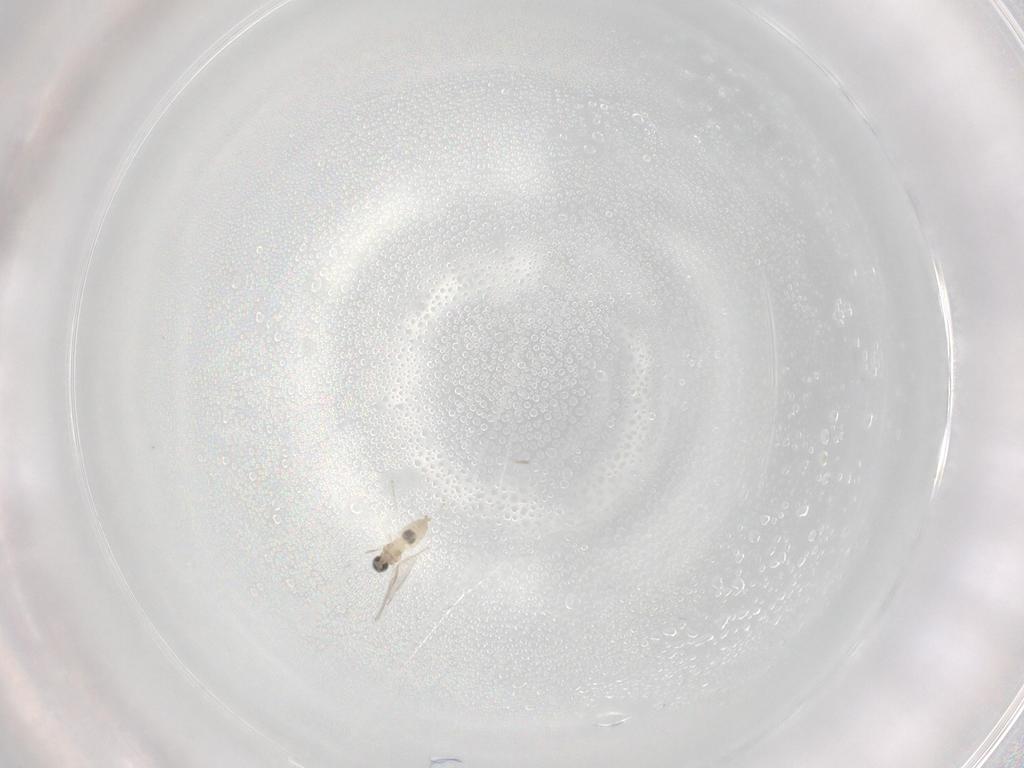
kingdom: Animalia
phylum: Arthropoda
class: Insecta
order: Diptera
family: Cecidomyiidae
